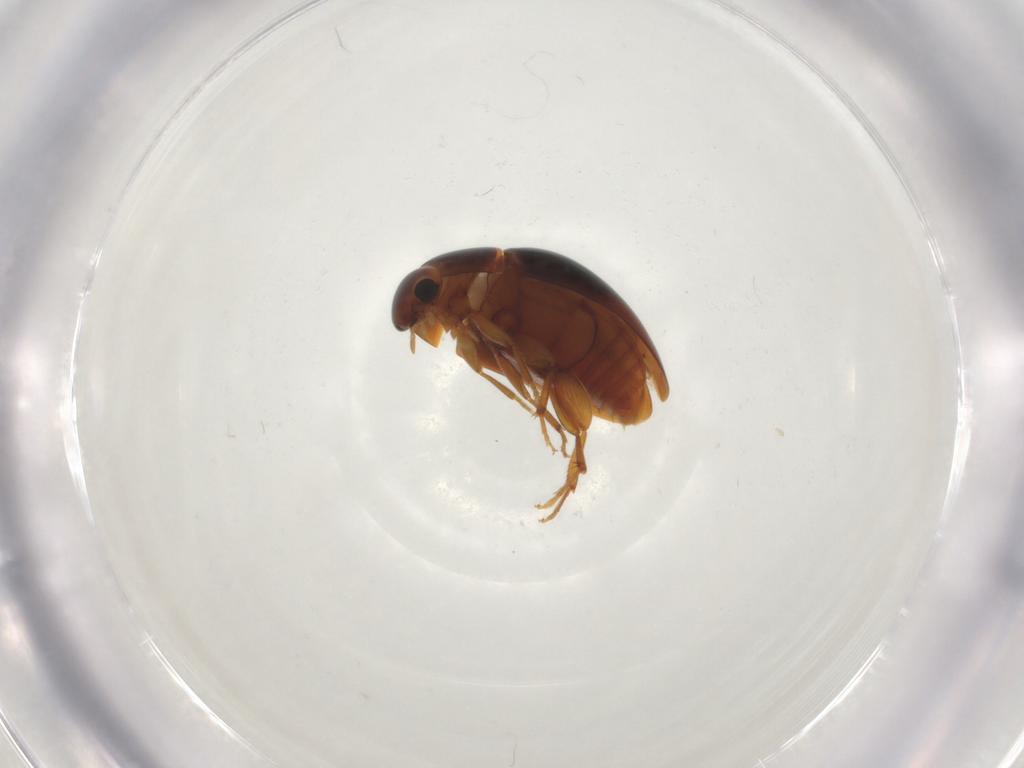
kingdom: Animalia
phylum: Arthropoda
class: Insecta
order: Coleoptera
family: Phalacridae
